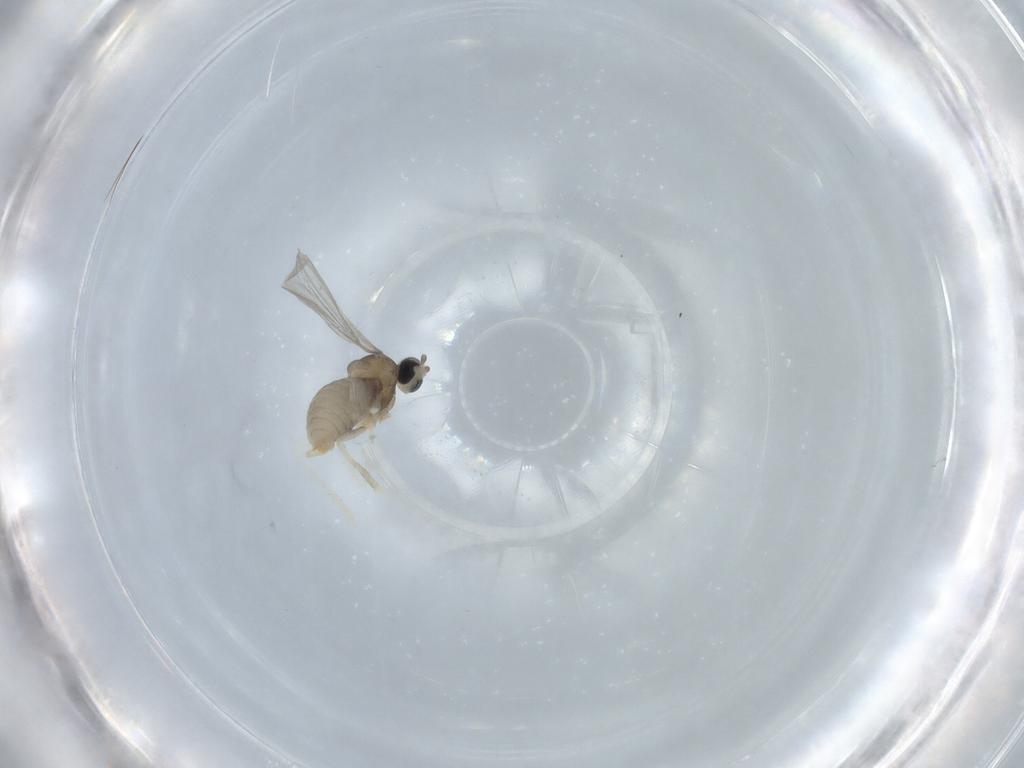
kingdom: Animalia
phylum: Arthropoda
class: Insecta
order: Diptera
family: Cecidomyiidae
